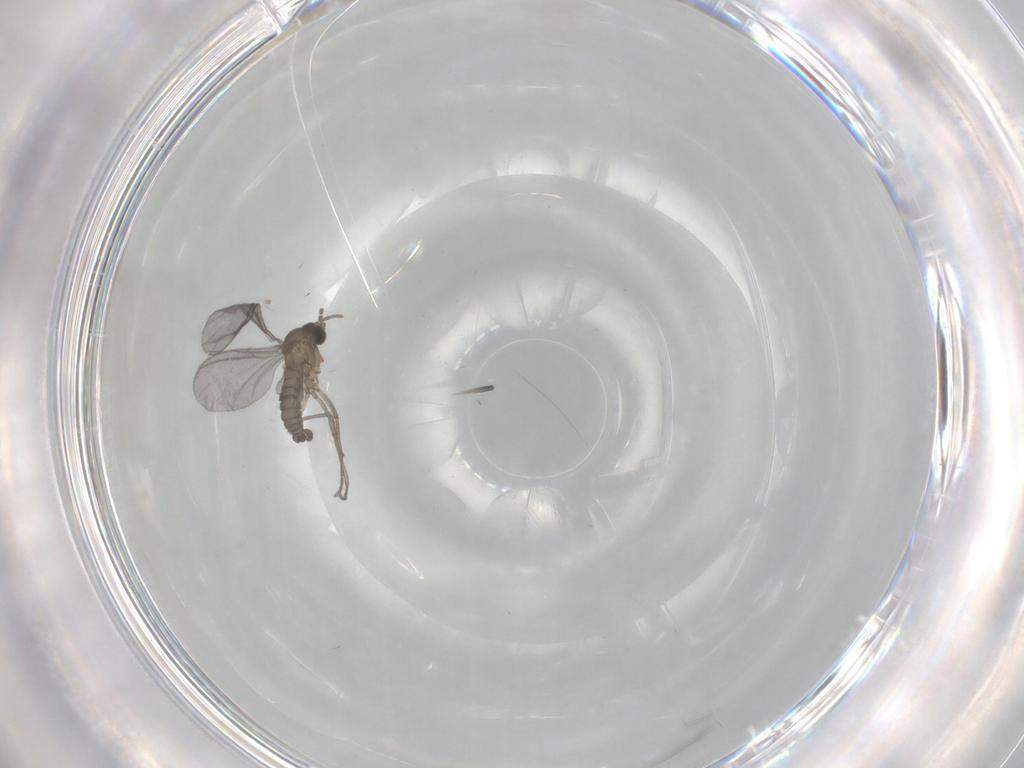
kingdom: Animalia
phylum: Arthropoda
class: Insecta
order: Diptera
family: Sciaridae
